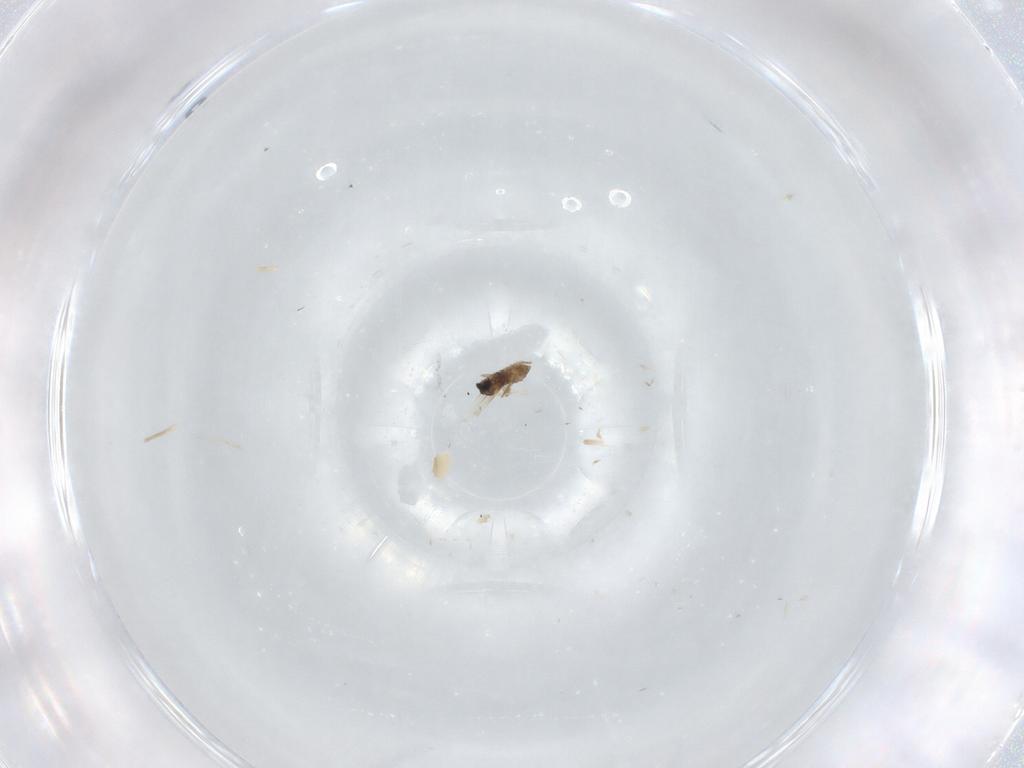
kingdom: Animalia
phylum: Arthropoda
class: Insecta
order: Diptera
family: Cecidomyiidae
